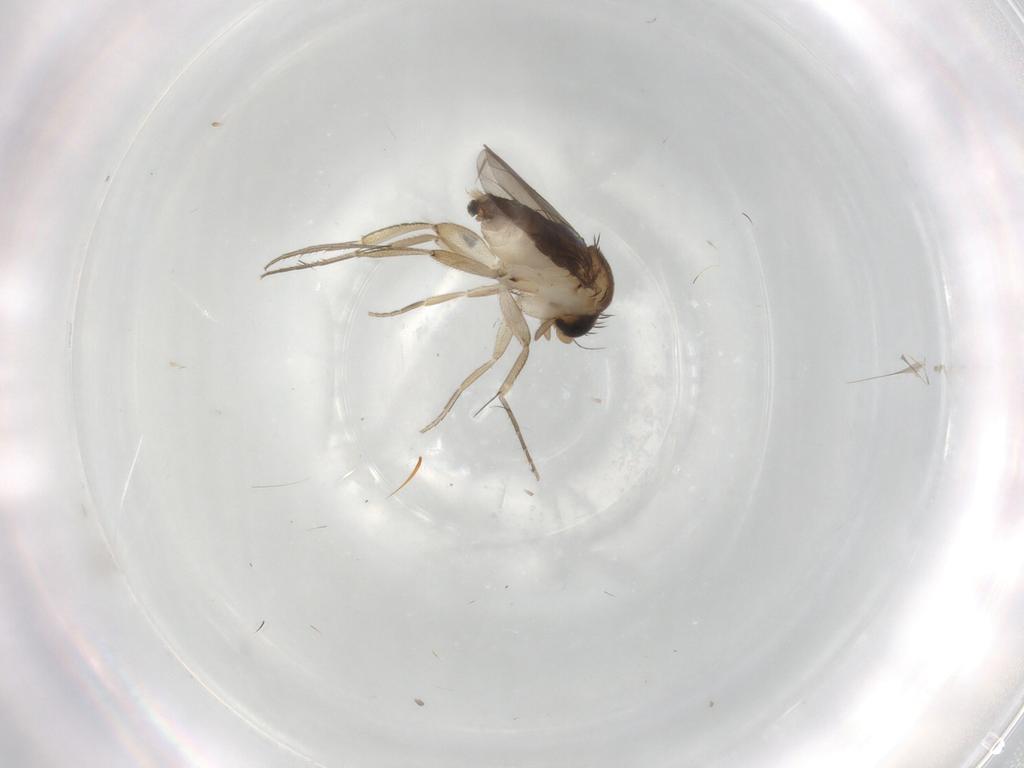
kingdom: Animalia
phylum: Arthropoda
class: Insecta
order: Diptera
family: Phoridae
